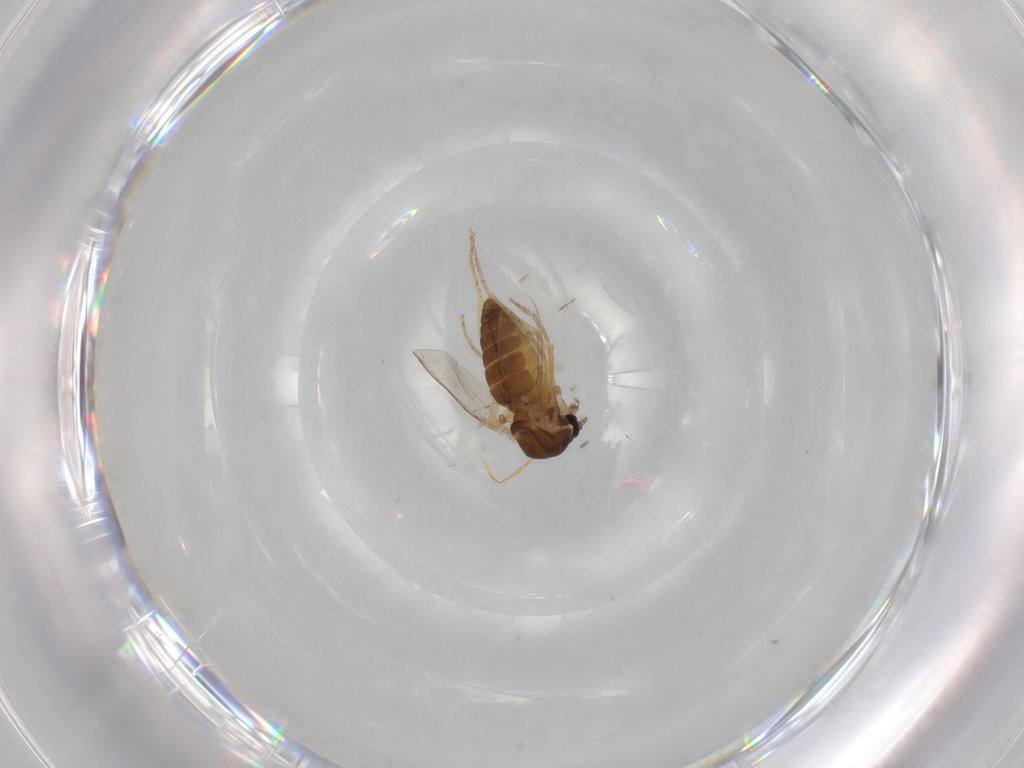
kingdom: Animalia
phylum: Arthropoda
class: Insecta
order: Diptera
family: Ceratopogonidae
